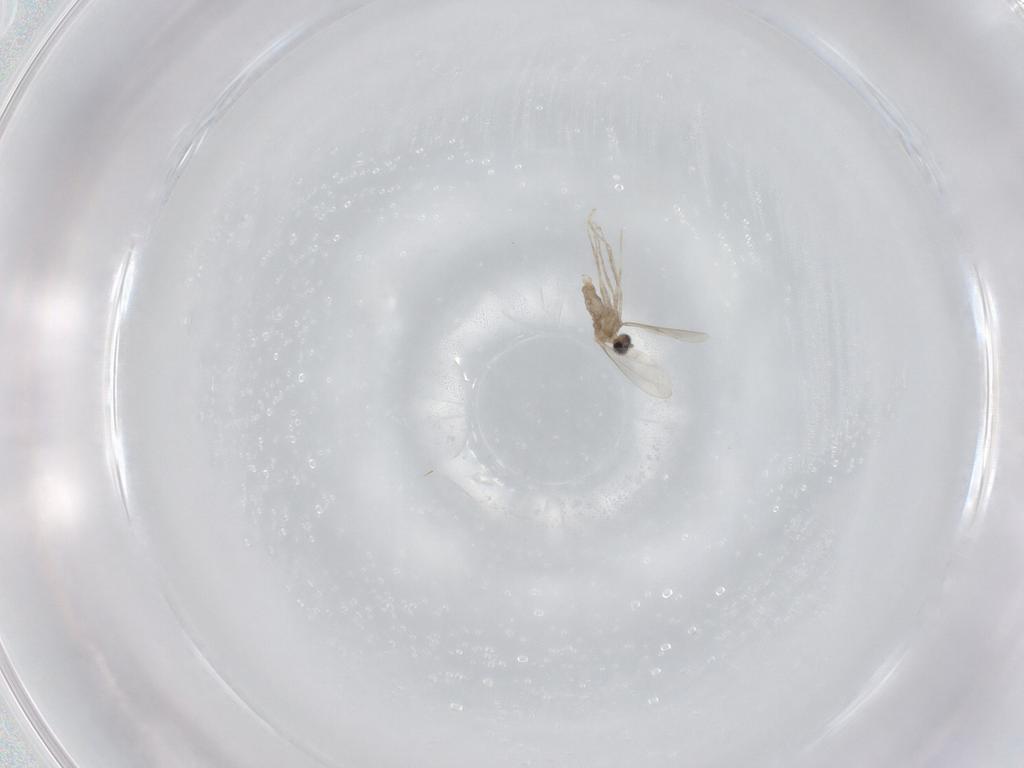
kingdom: Animalia
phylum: Arthropoda
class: Insecta
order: Diptera
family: Cecidomyiidae
